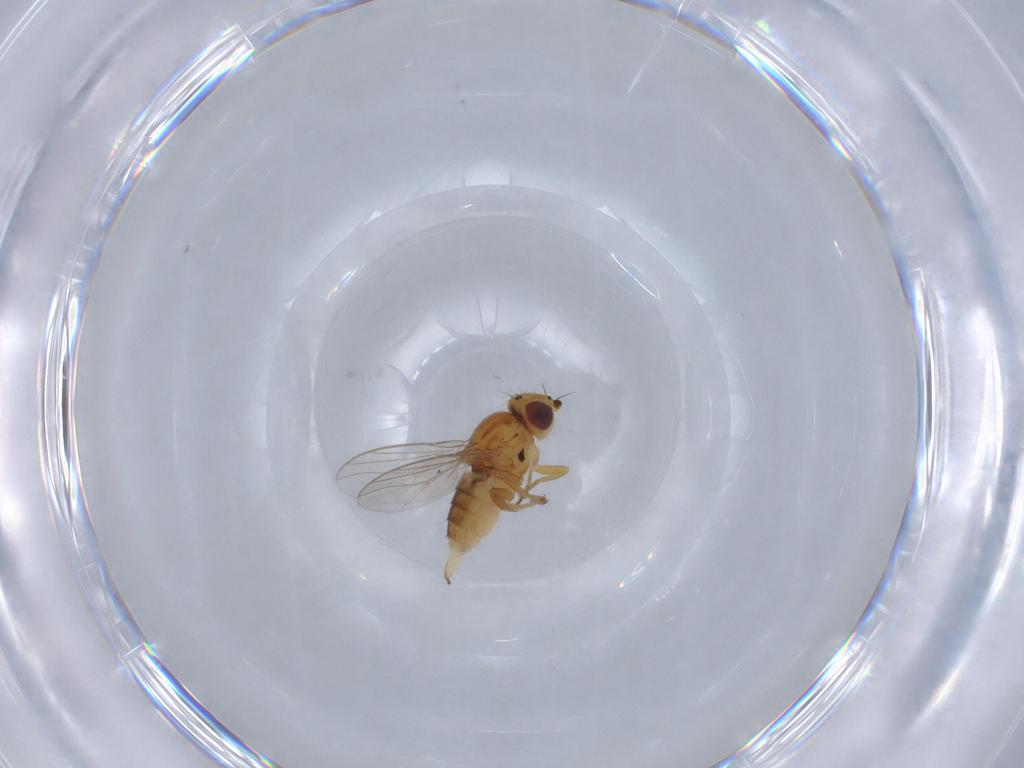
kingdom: Animalia
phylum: Arthropoda
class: Insecta
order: Diptera
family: Chloropidae
